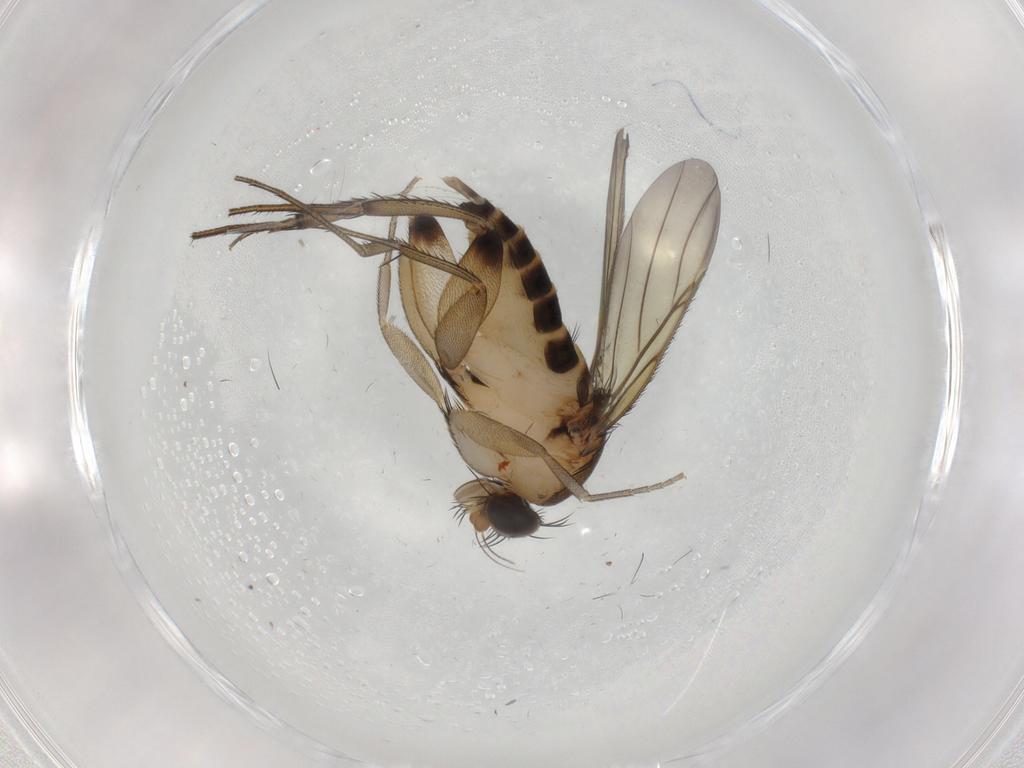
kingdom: Animalia
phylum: Arthropoda
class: Insecta
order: Diptera
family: Phoridae
